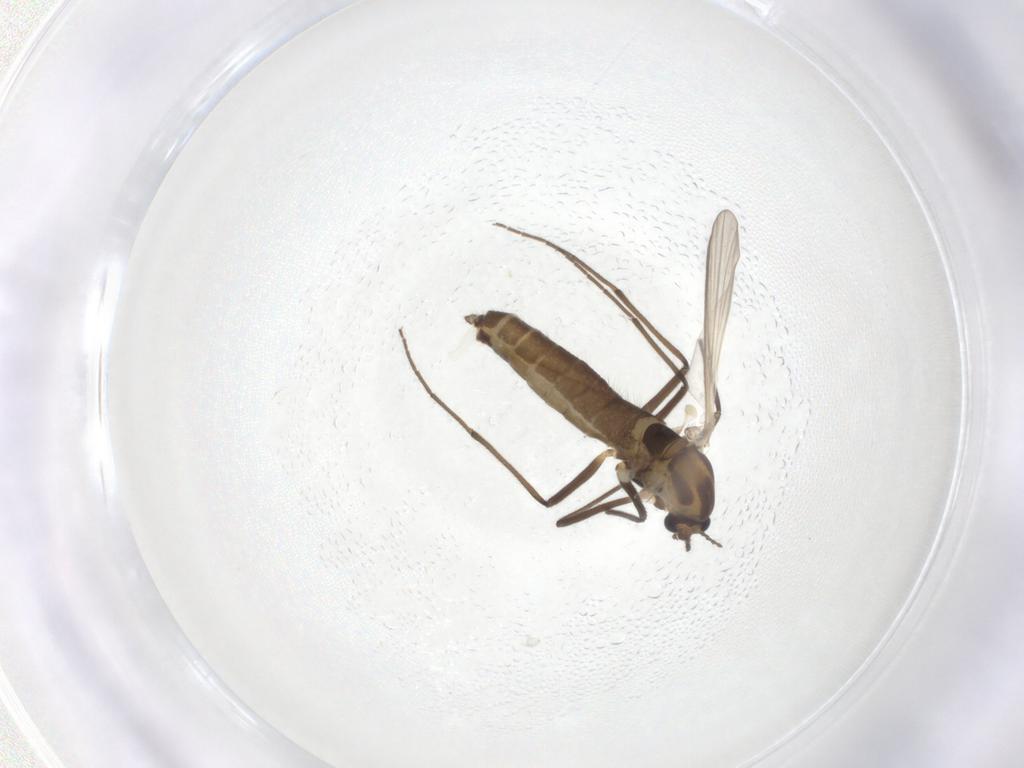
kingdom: Animalia
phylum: Arthropoda
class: Insecta
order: Diptera
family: Chironomidae
